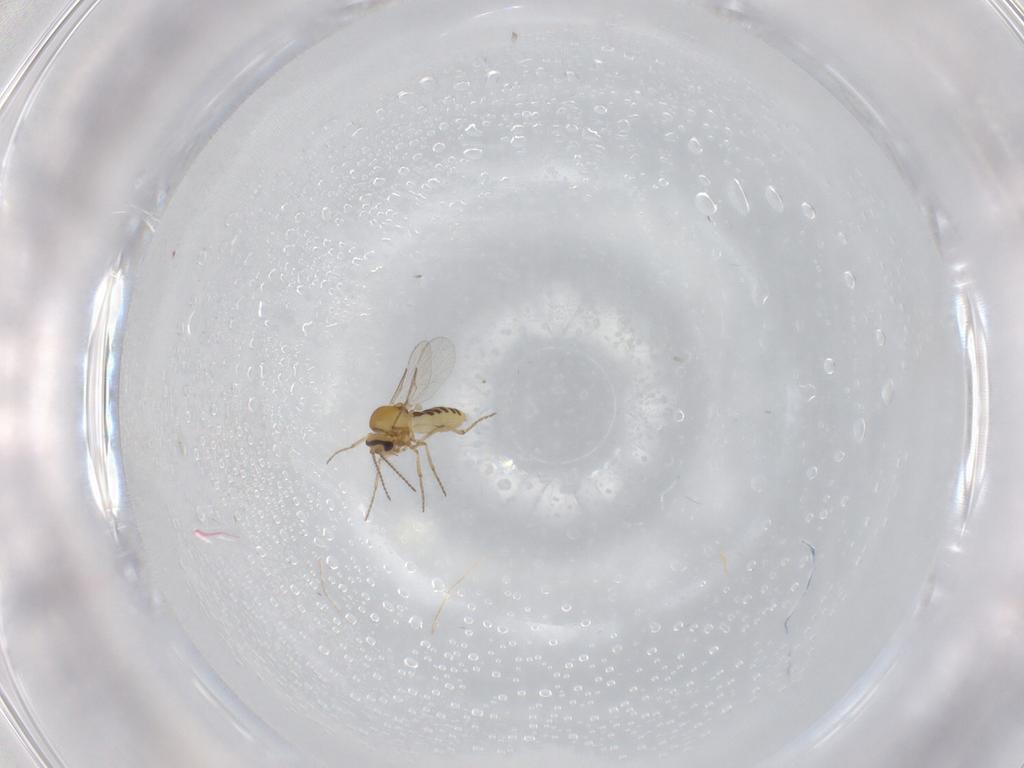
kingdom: Animalia
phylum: Arthropoda
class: Insecta
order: Diptera
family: Ceratopogonidae
